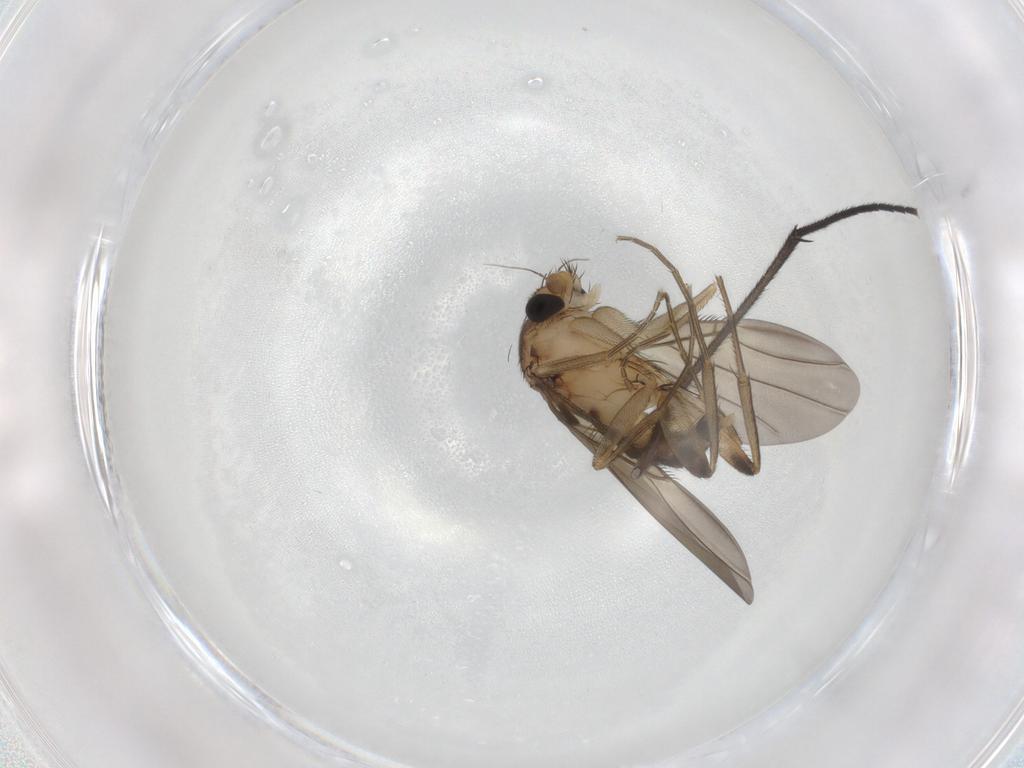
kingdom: Animalia
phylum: Arthropoda
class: Insecta
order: Diptera
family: Phoridae
